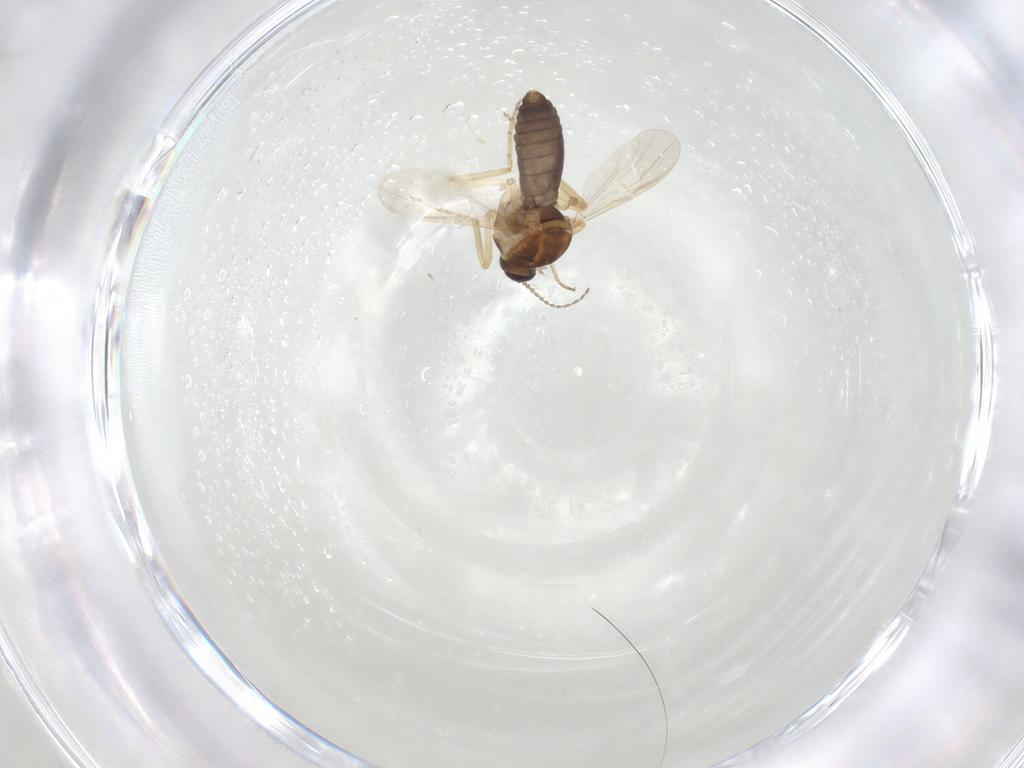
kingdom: Animalia
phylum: Arthropoda
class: Insecta
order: Diptera
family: Ceratopogonidae
